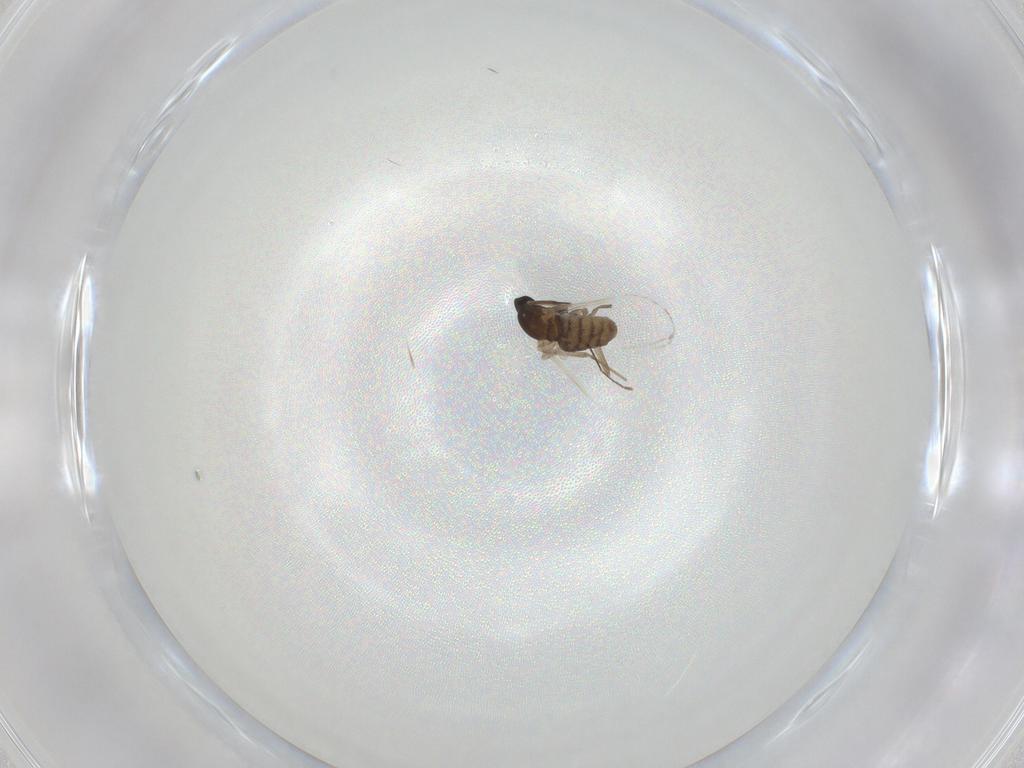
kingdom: Animalia
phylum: Arthropoda
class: Insecta
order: Diptera
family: Cecidomyiidae
